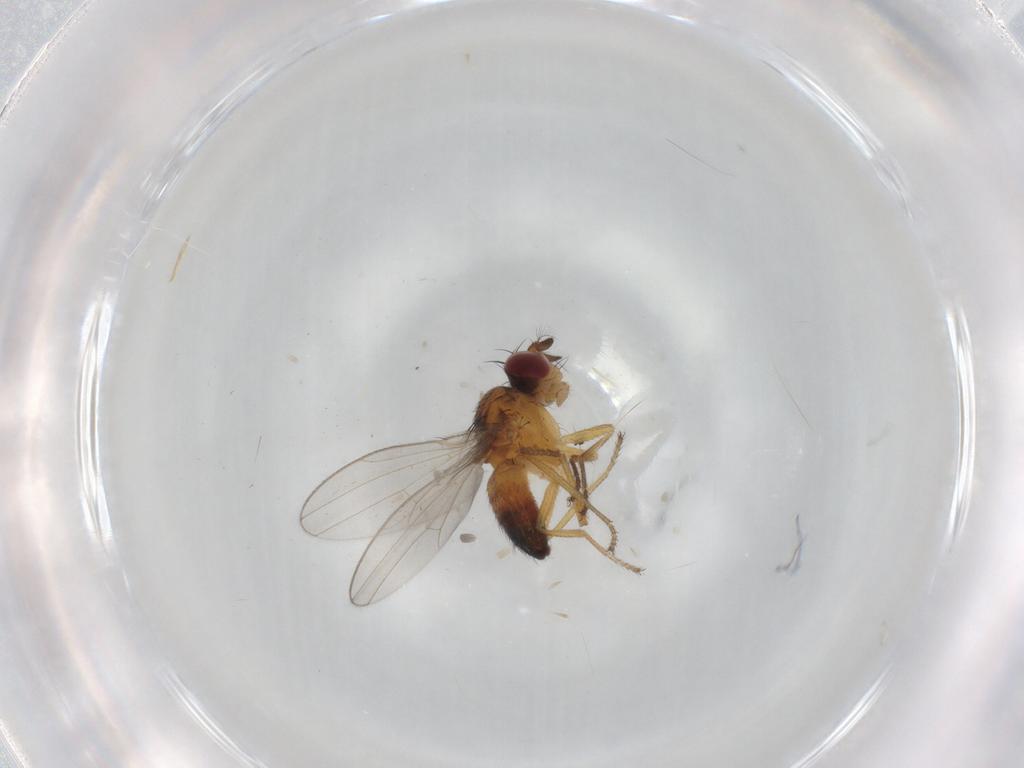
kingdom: Animalia
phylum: Arthropoda
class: Insecta
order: Diptera
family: Ephydridae
